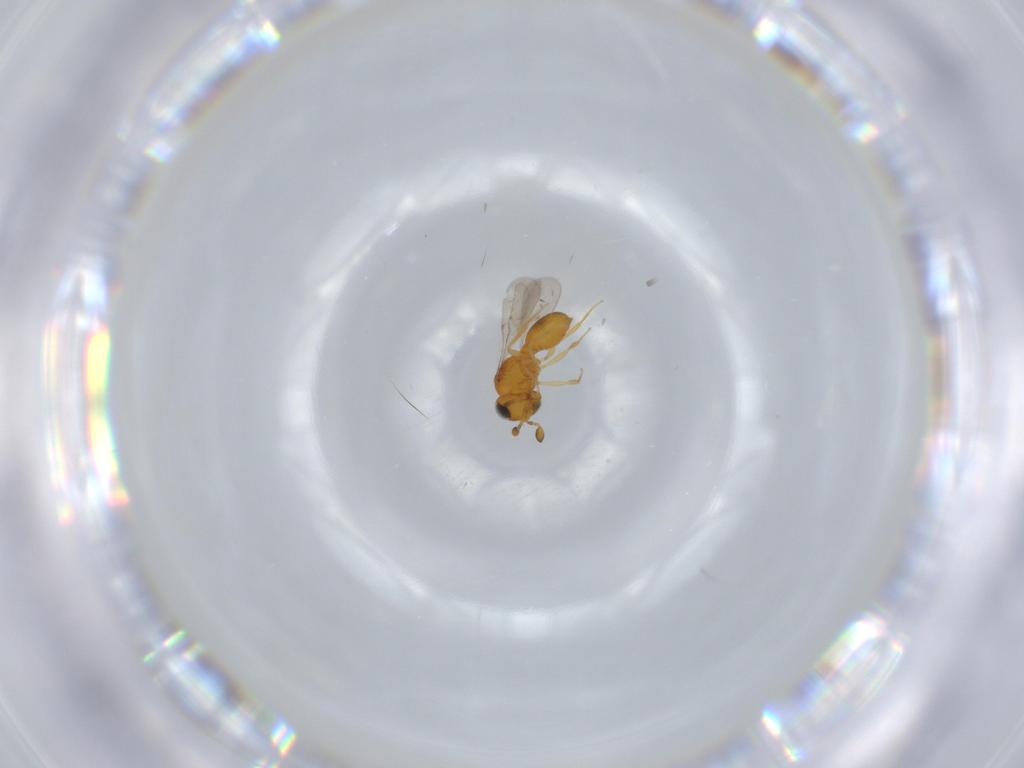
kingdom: Animalia
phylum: Arthropoda
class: Insecta
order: Hymenoptera
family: Scelionidae
